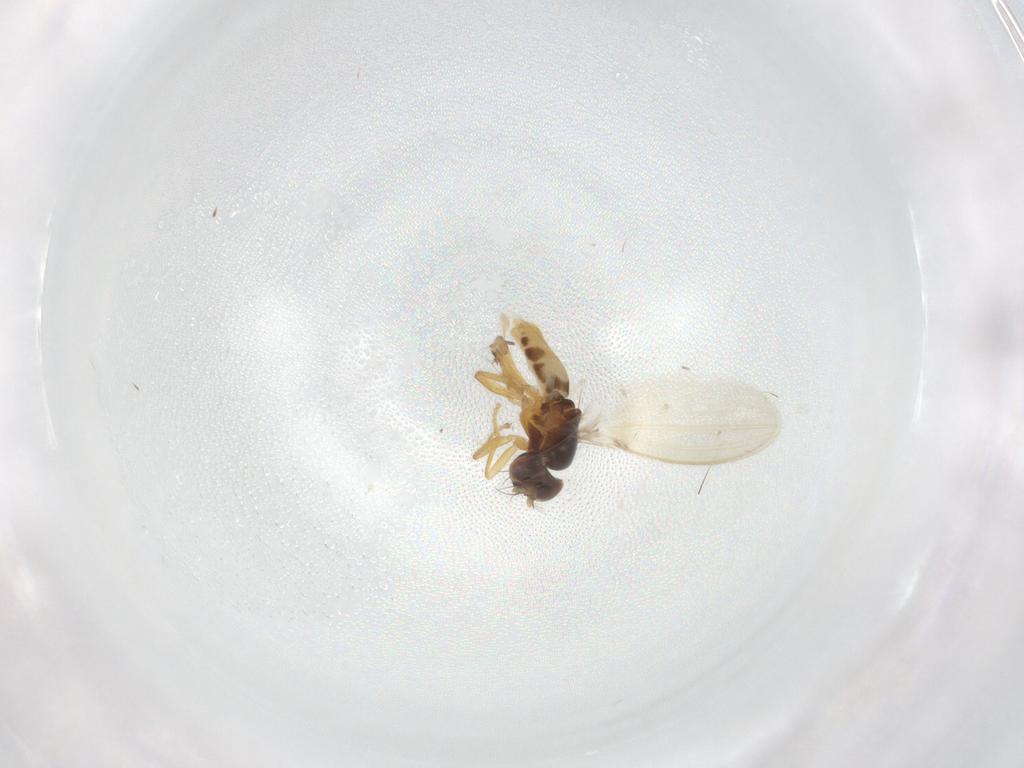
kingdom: Animalia
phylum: Arthropoda
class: Insecta
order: Diptera
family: Periscelididae
